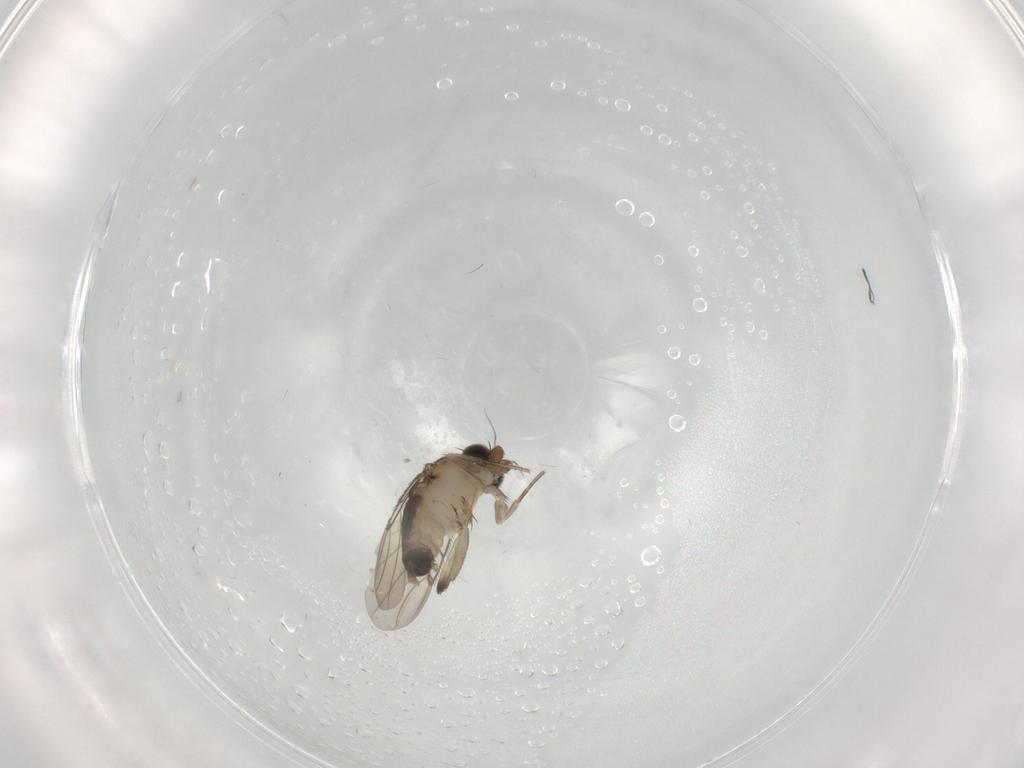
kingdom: Animalia
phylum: Arthropoda
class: Insecta
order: Diptera
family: Phoridae
